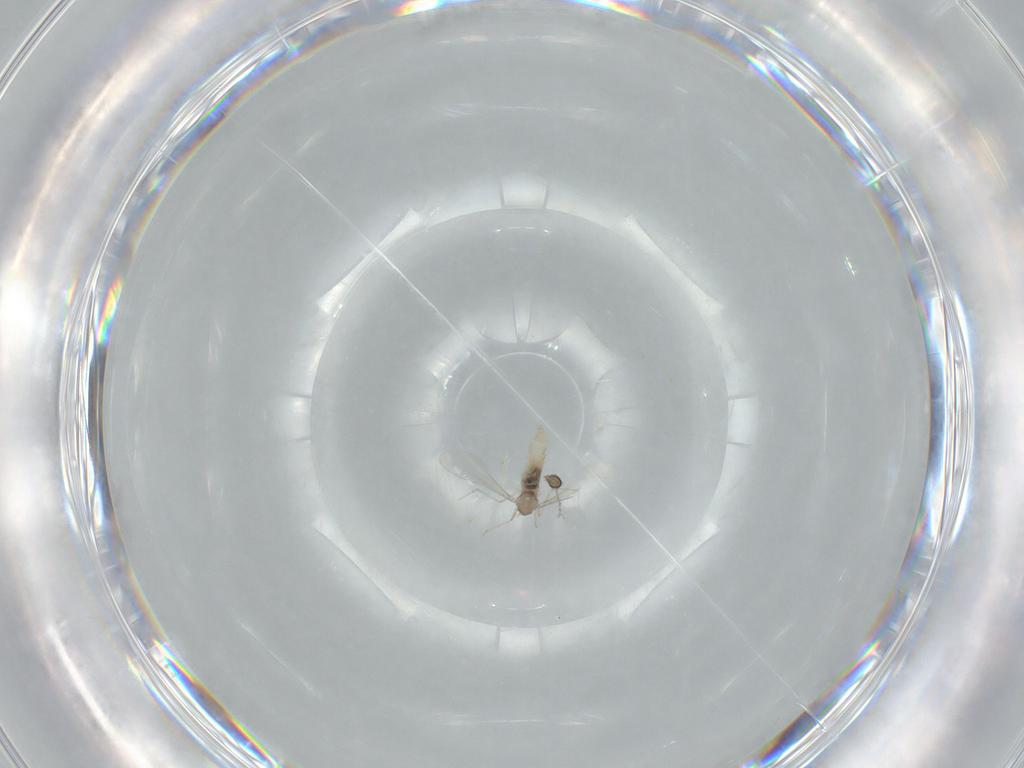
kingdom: Animalia
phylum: Arthropoda
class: Insecta
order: Diptera
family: Cecidomyiidae
